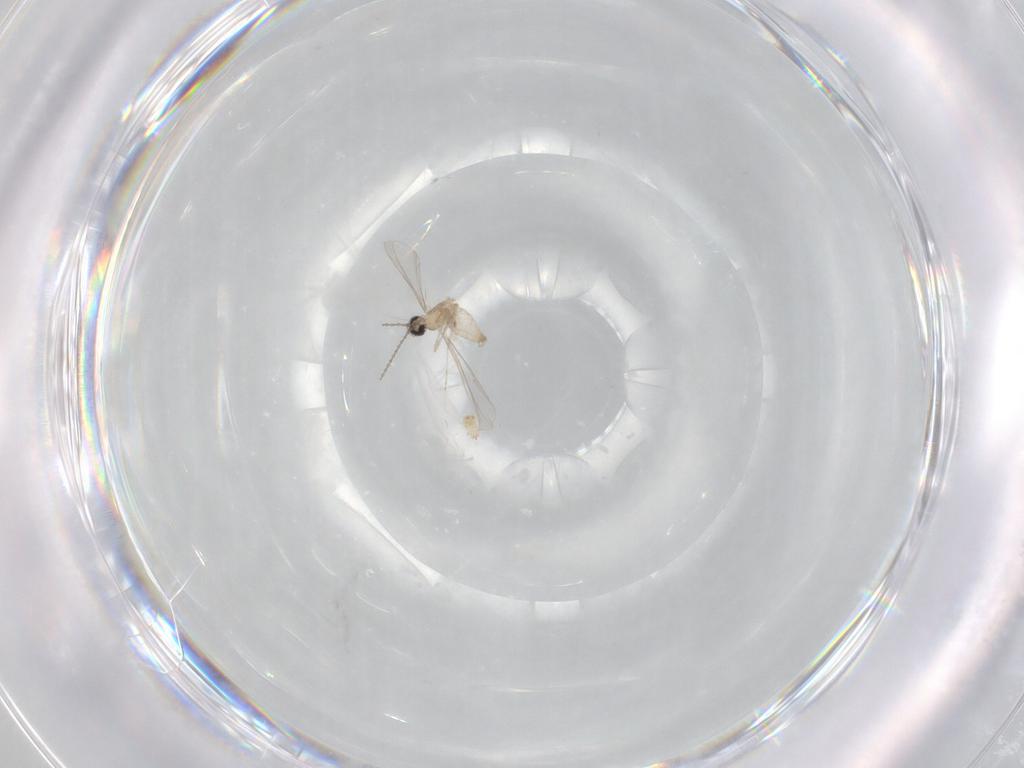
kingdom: Animalia
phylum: Arthropoda
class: Insecta
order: Diptera
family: Cecidomyiidae
